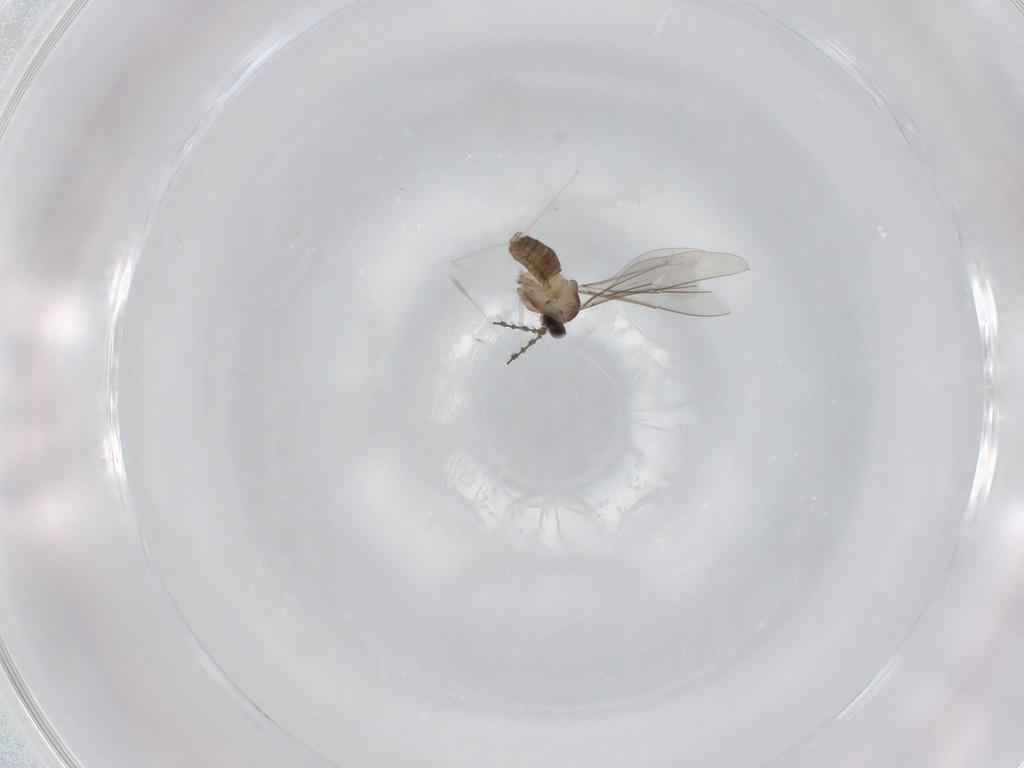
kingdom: Animalia
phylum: Arthropoda
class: Insecta
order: Diptera
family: Cecidomyiidae
